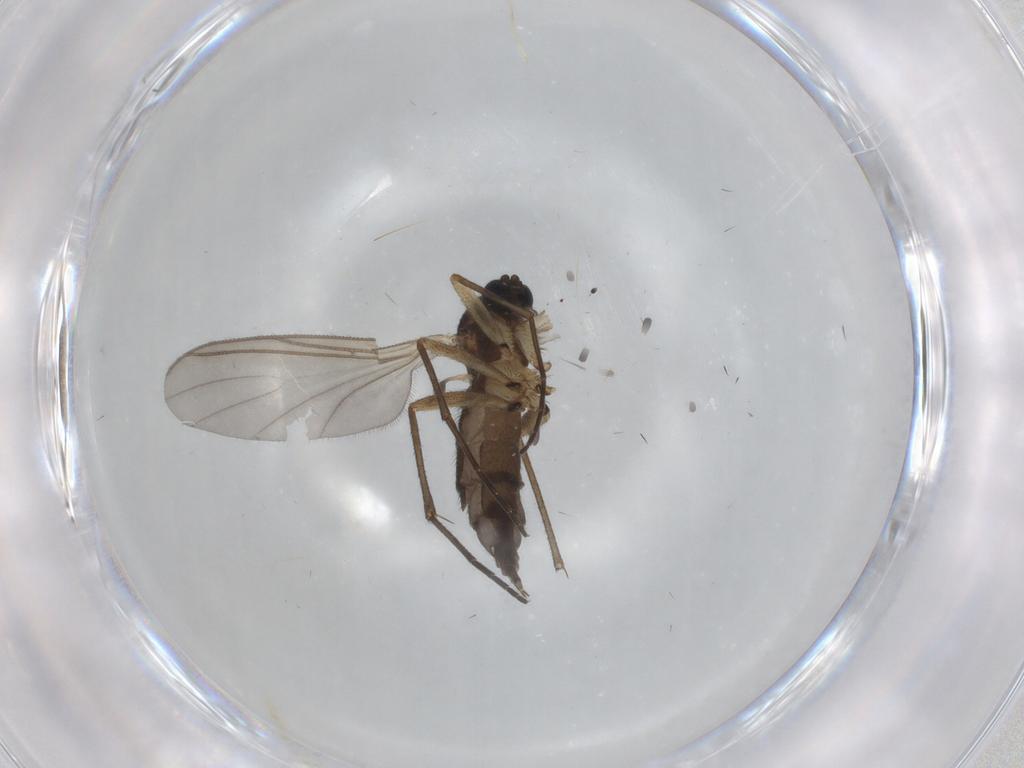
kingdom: Animalia
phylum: Arthropoda
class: Insecta
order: Diptera
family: Sciaridae
